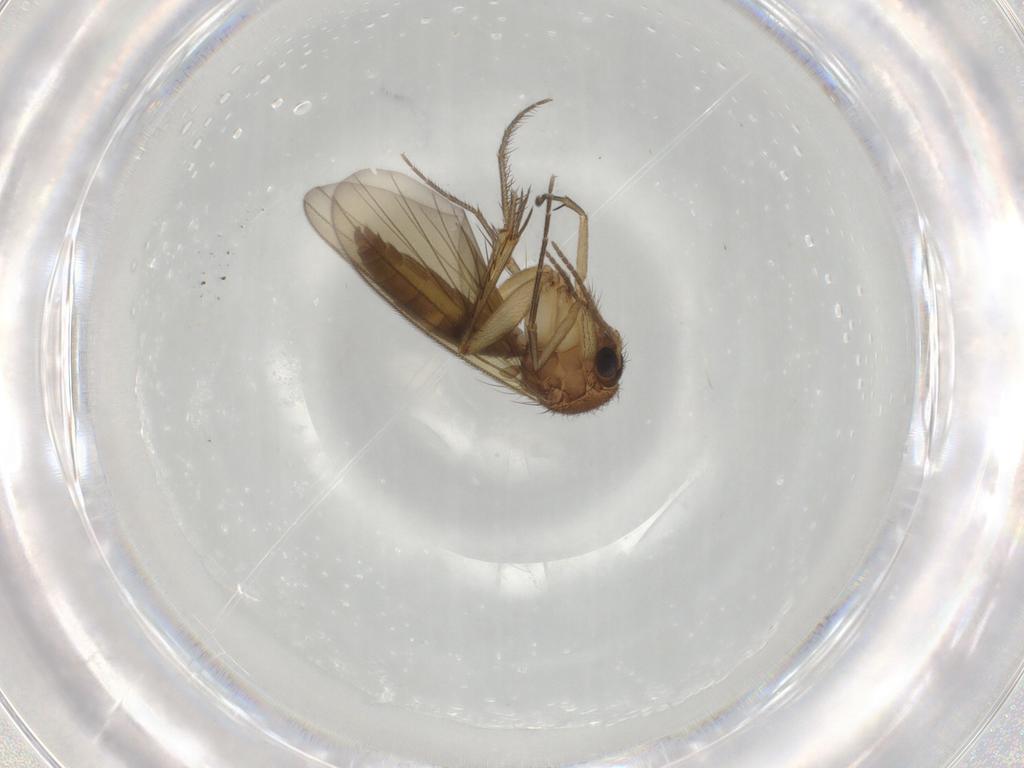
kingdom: Animalia
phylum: Arthropoda
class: Insecta
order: Diptera
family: Mycetophilidae
